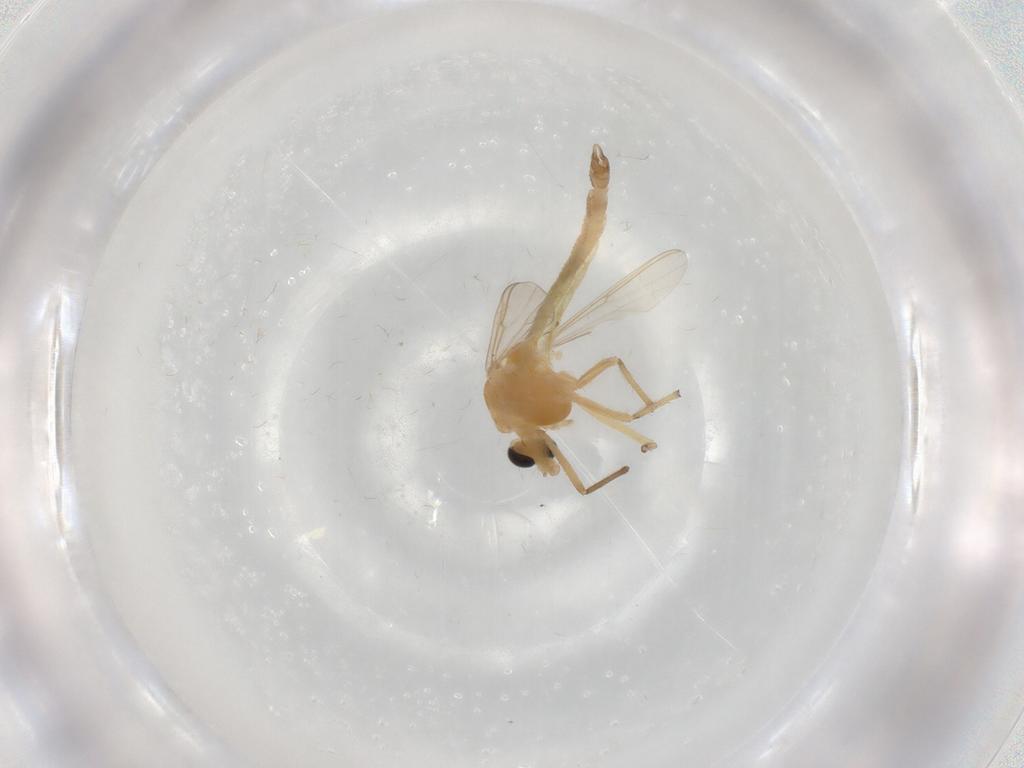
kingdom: Animalia
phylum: Arthropoda
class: Insecta
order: Diptera
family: Chironomidae
